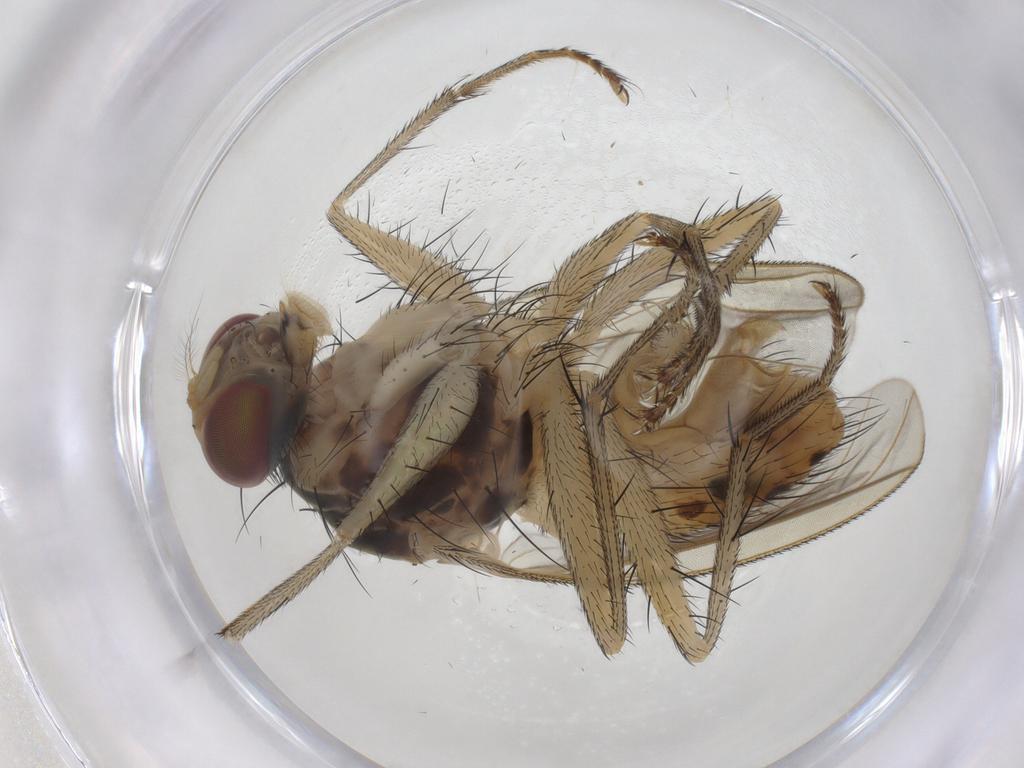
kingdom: Animalia
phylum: Arthropoda
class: Insecta
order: Diptera
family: Muscidae
